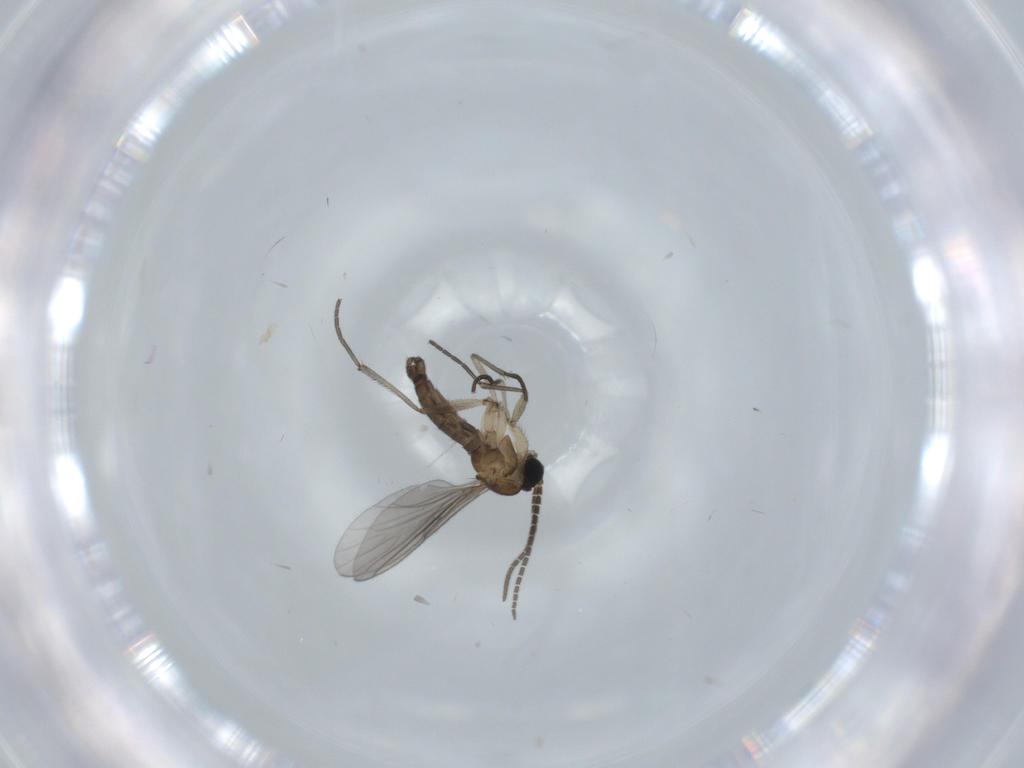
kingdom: Animalia
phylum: Arthropoda
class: Insecta
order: Diptera
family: Sciaridae
